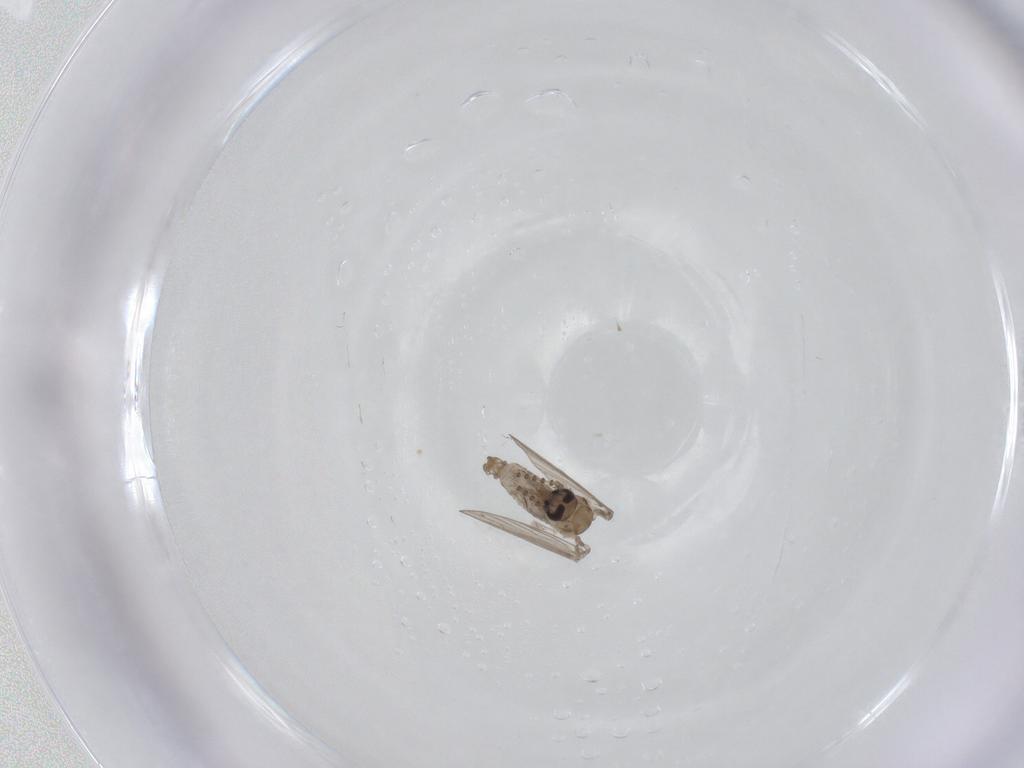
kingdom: Animalia
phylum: Arthropoda
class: Insecta
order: Diptera
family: Psychodidae
